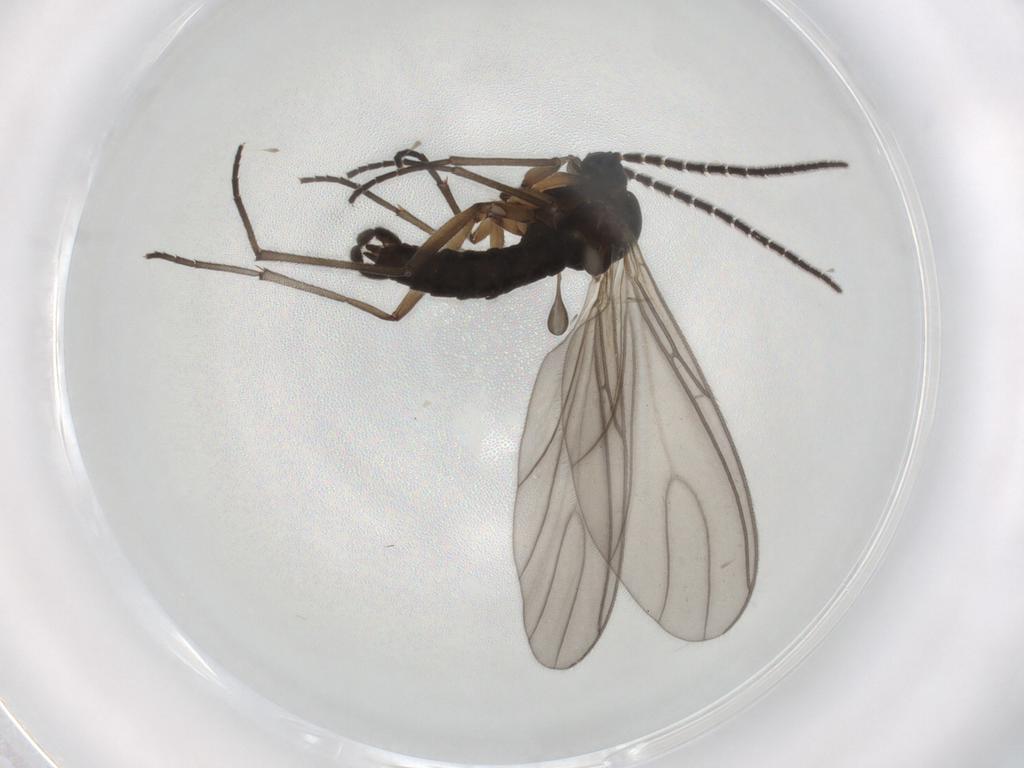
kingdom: Animalia
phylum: Arthropoda
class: Insecta
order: Diptera
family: Sciaridae
